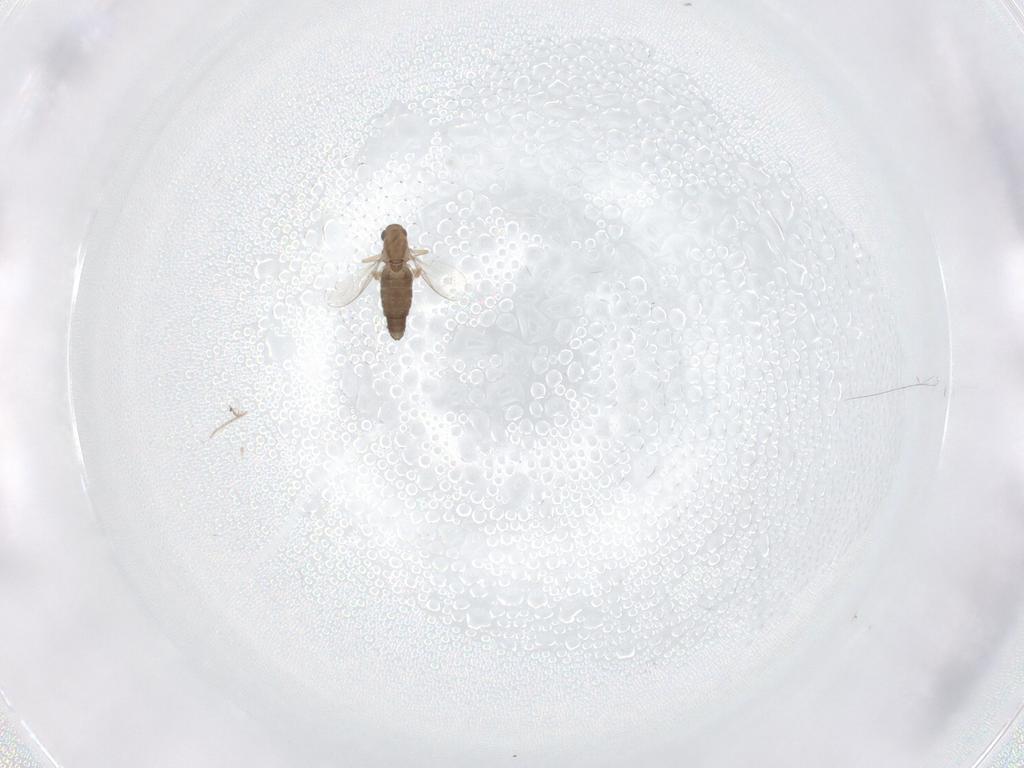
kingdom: Animalia
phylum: Arthropoda
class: Insecta
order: Diptera
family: Chironomidae
